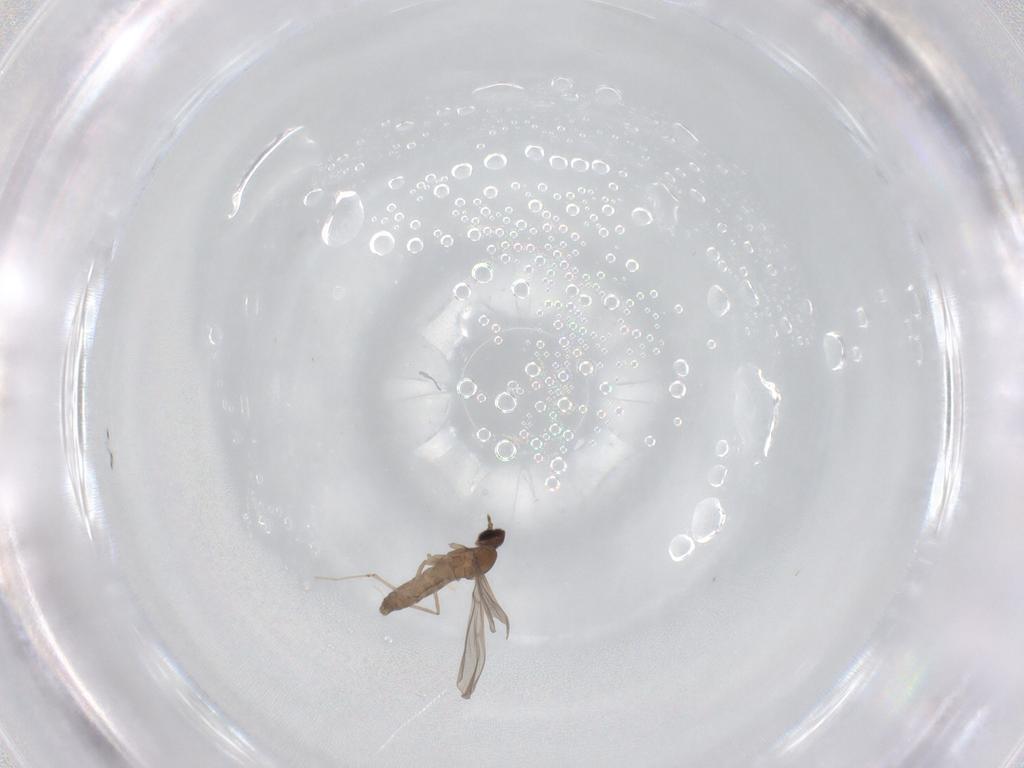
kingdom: Animalia
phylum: Arthropoda
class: Insecta
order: Diptera
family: Cecidomyiidae
